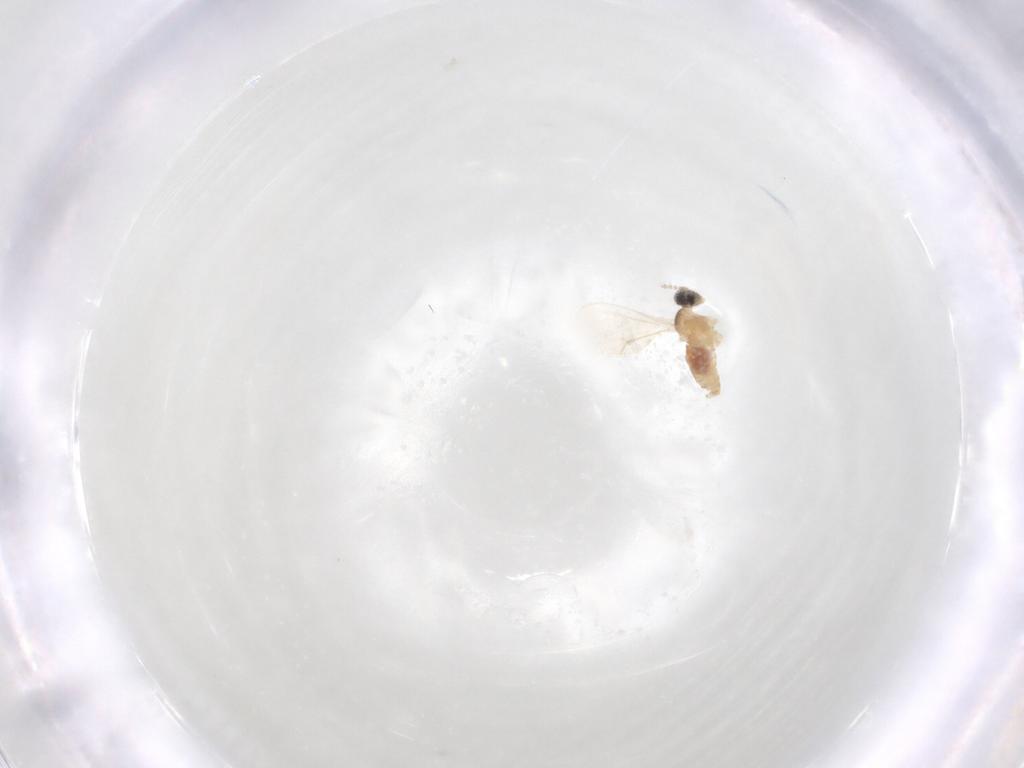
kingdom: Animalia
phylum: Arthropoda
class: Insecta
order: Diptera
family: Cecidomyiidae
